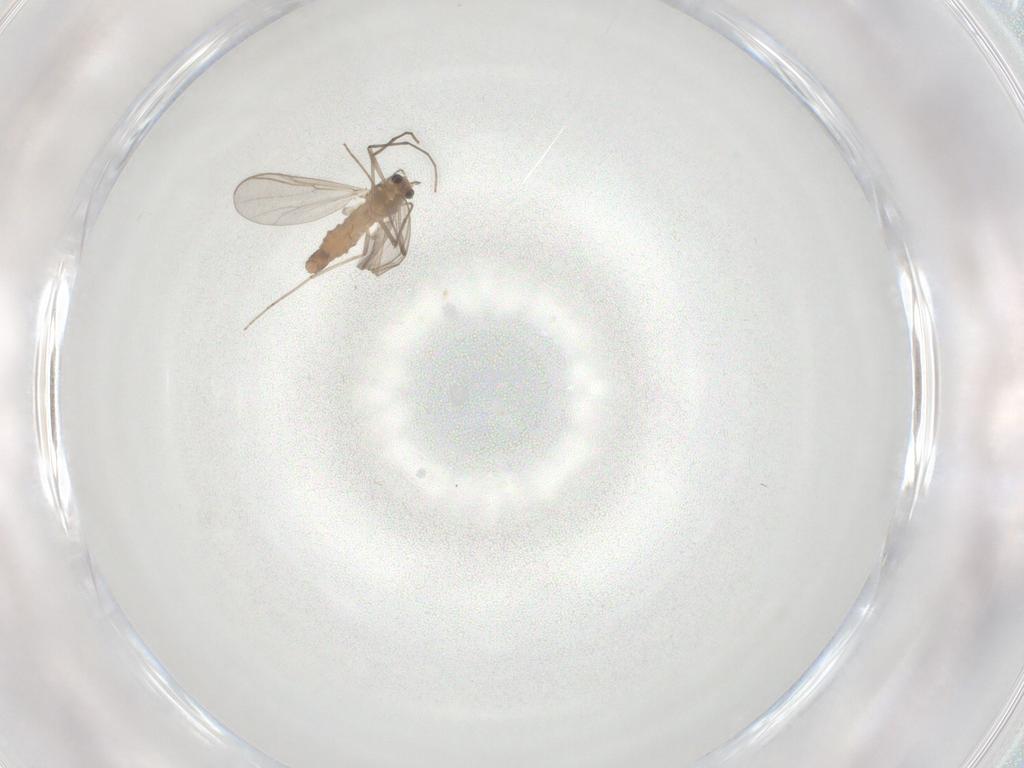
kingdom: Animalia
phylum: Arthropoda
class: Insecta
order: Diptera
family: Chironomidae
